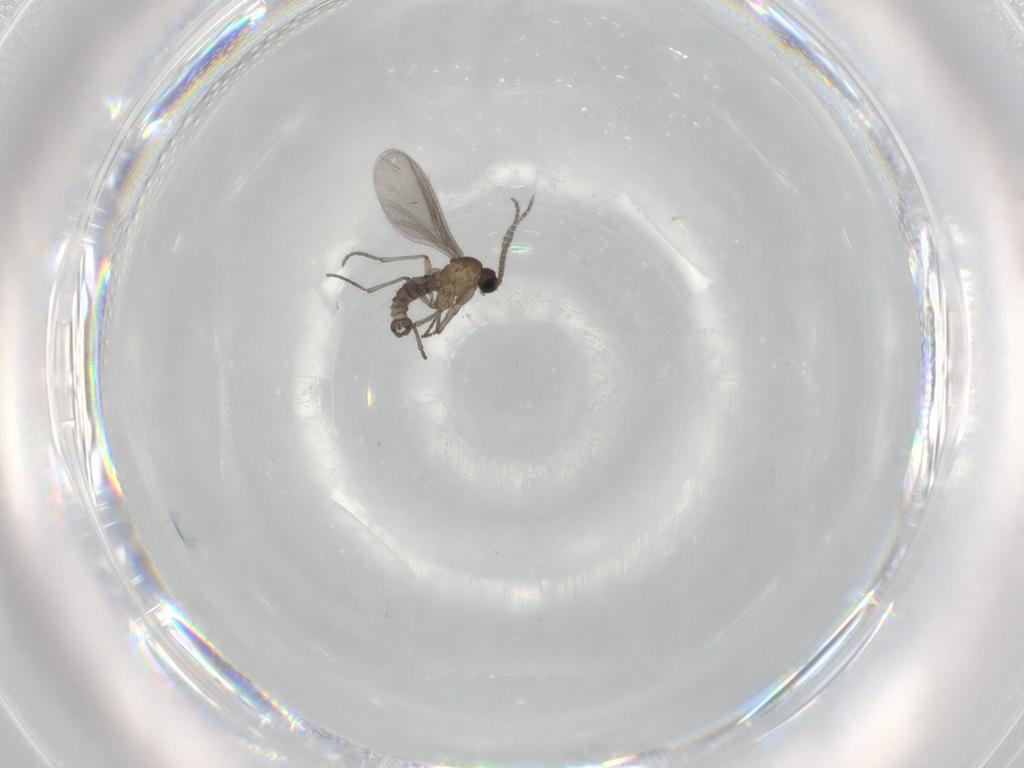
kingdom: Animalia
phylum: Arthropoda
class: Insecta
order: Diptera
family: Sciaridae
